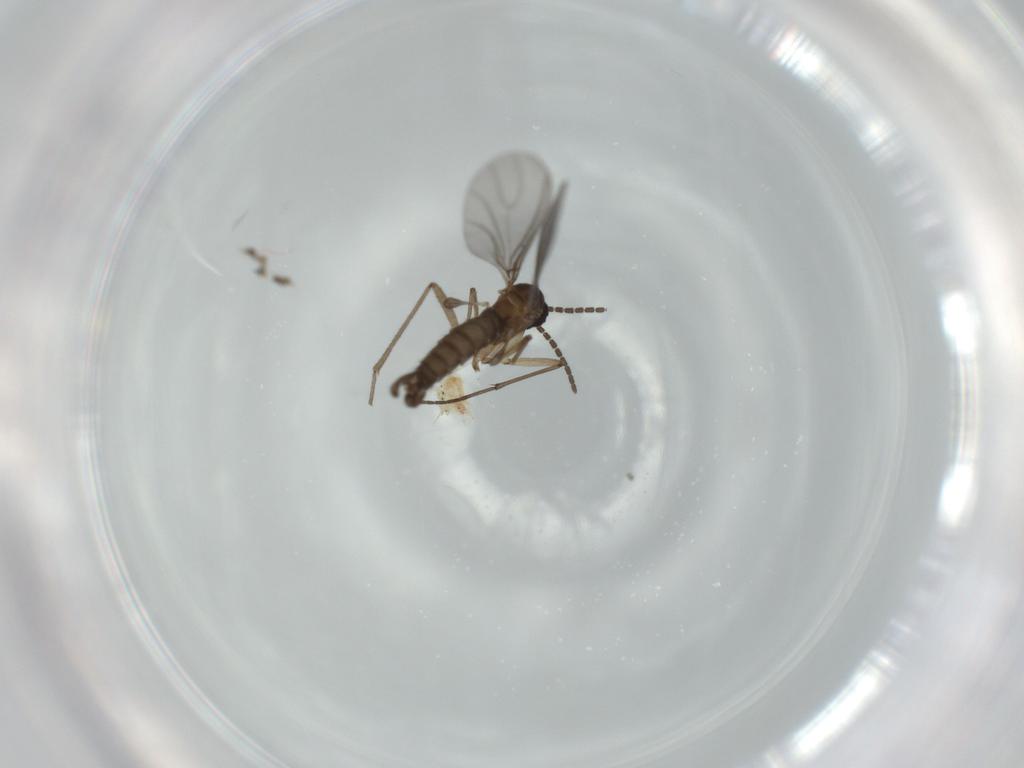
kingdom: Animalia
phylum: Arthropoda
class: Insecta
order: Diptera
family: Sciaridae
